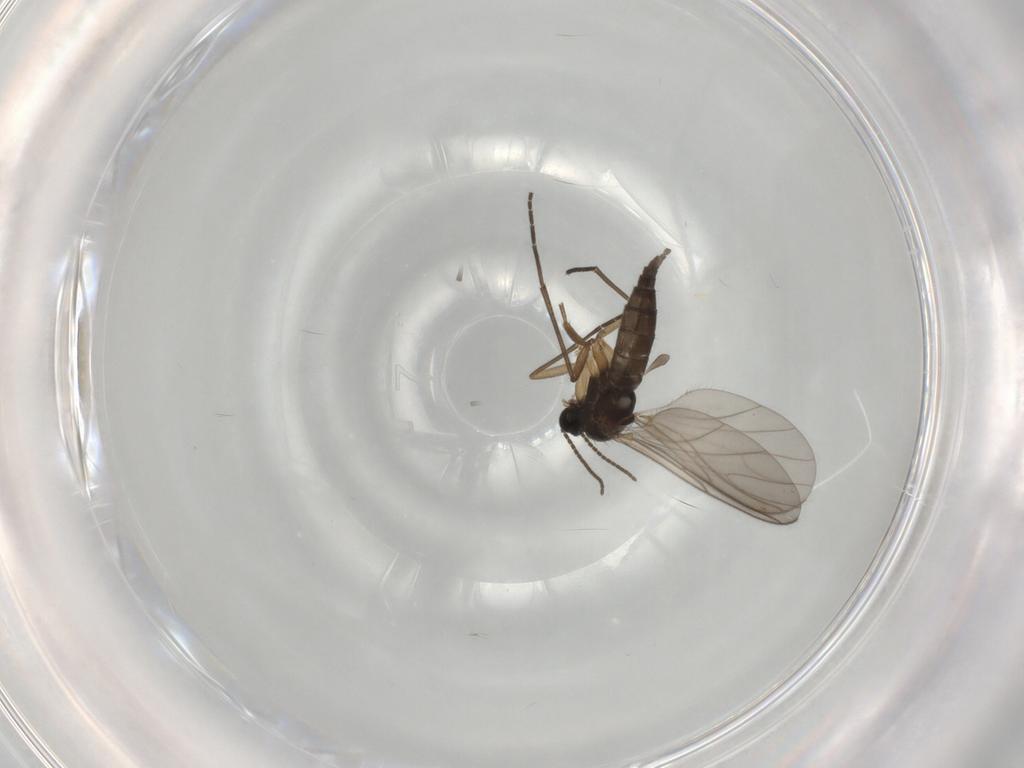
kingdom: Animalia
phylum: Arthropoda
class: Insecta
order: Diptera
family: Sciaridae
